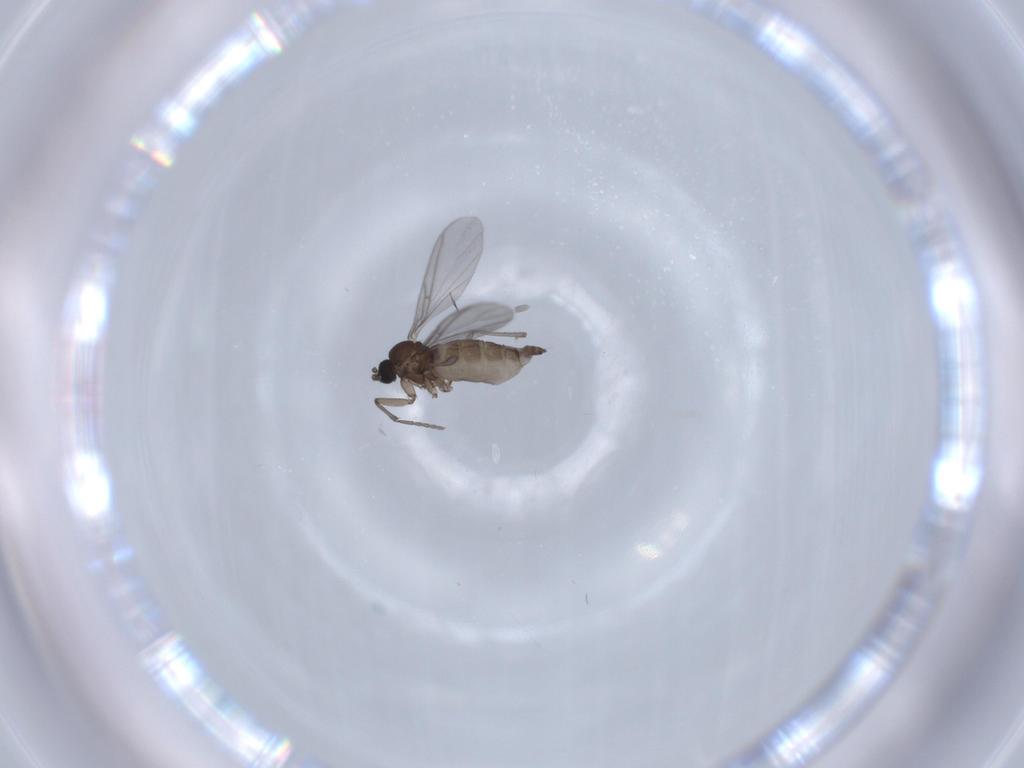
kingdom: Animalia
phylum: Arthropoda
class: Insecta
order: Diptera
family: Sciaridae
